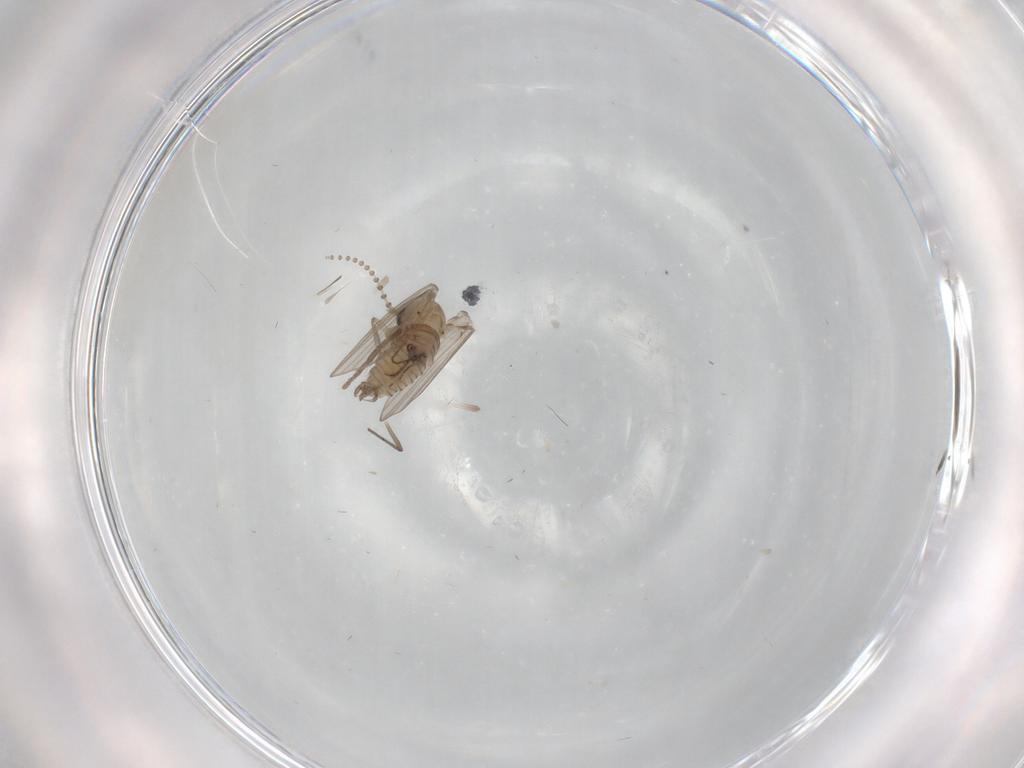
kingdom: Animalia
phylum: Arthropoda
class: Insecta
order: Diptera
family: Psychodidae
